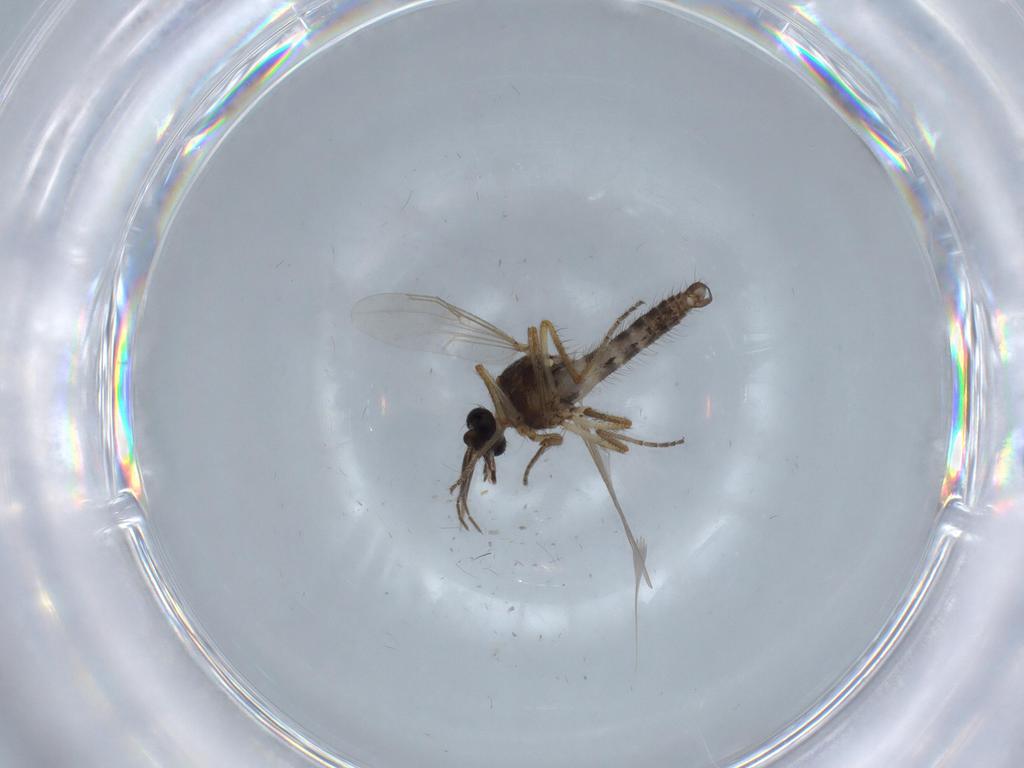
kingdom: Animalia
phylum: Arthropoda
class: Insecta
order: Diptera
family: Ceratopogonidae
